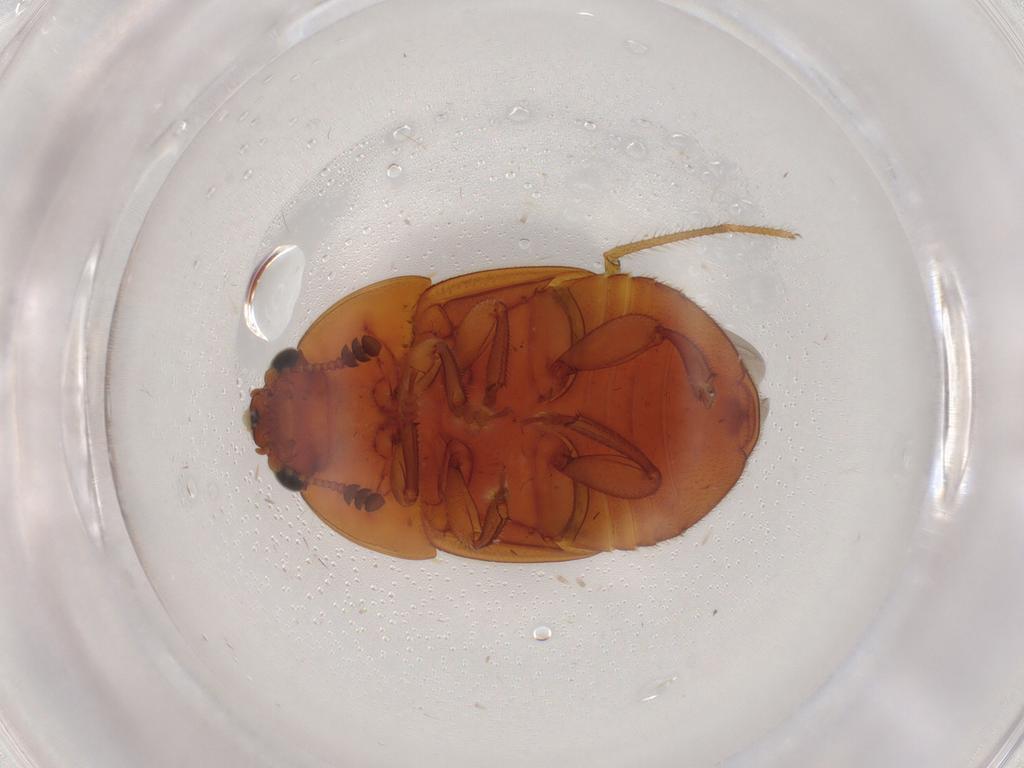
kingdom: Animalia
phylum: Arthropoda
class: Insecta
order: Coleoptera
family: Nitidulidae
